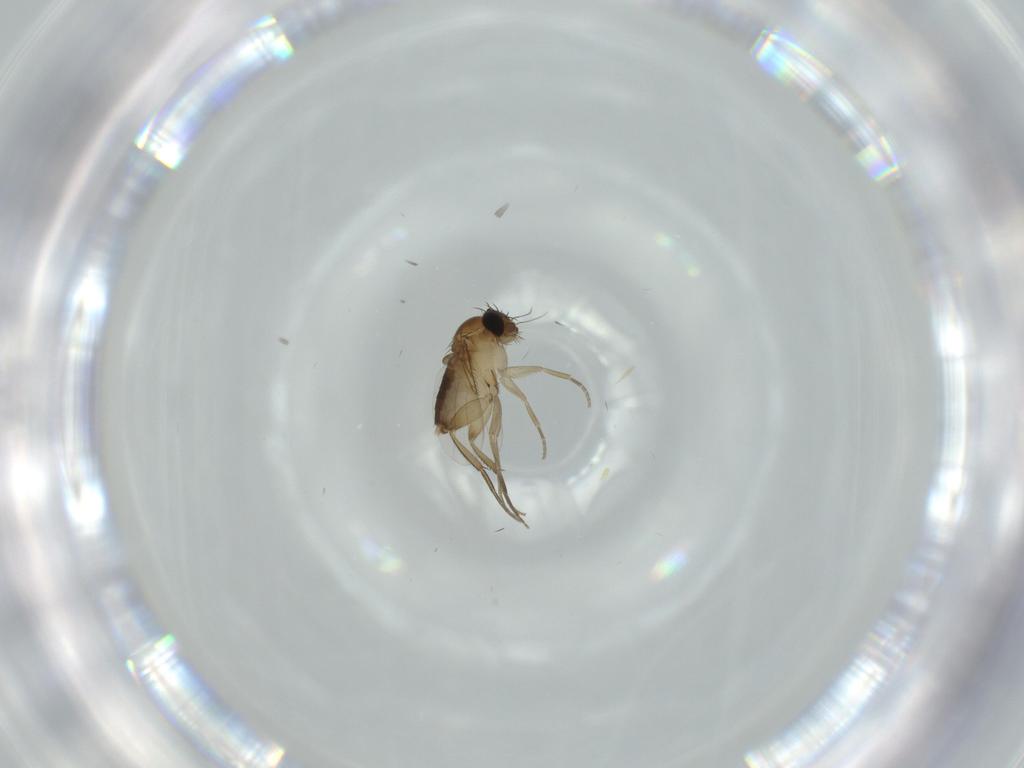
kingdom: Animalia
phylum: Arthropoda
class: Insecta
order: Diptera
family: Phoridae
